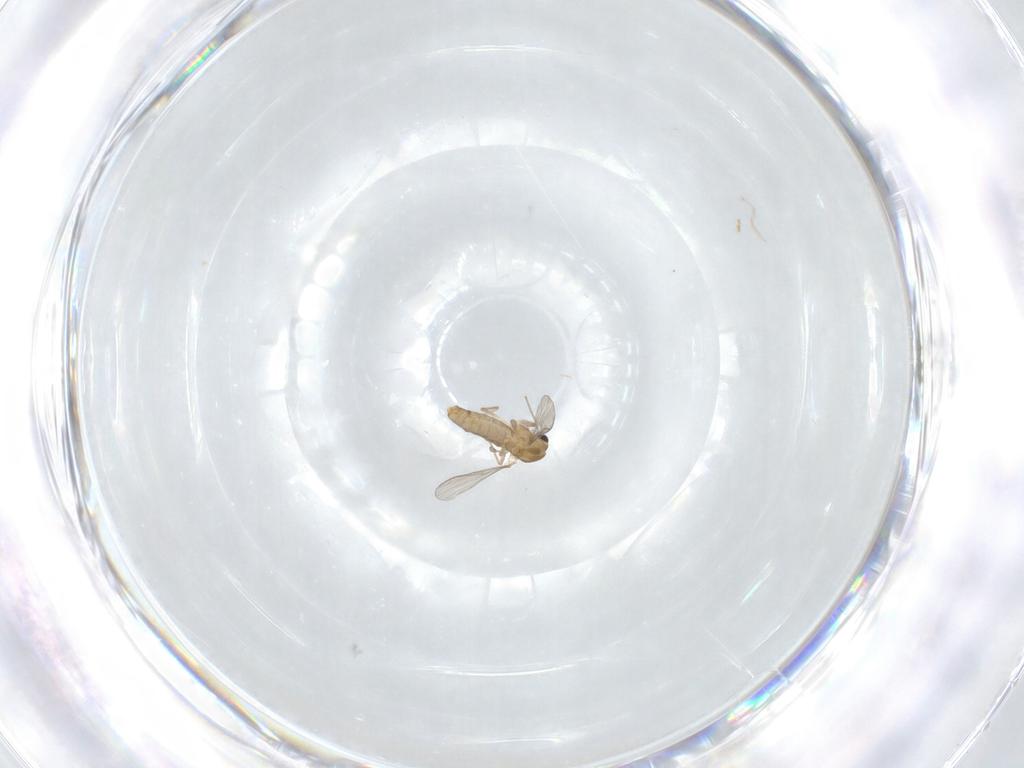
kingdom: Animalia
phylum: Arthropoda
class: Insecta
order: Diptera
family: Chironomidae
